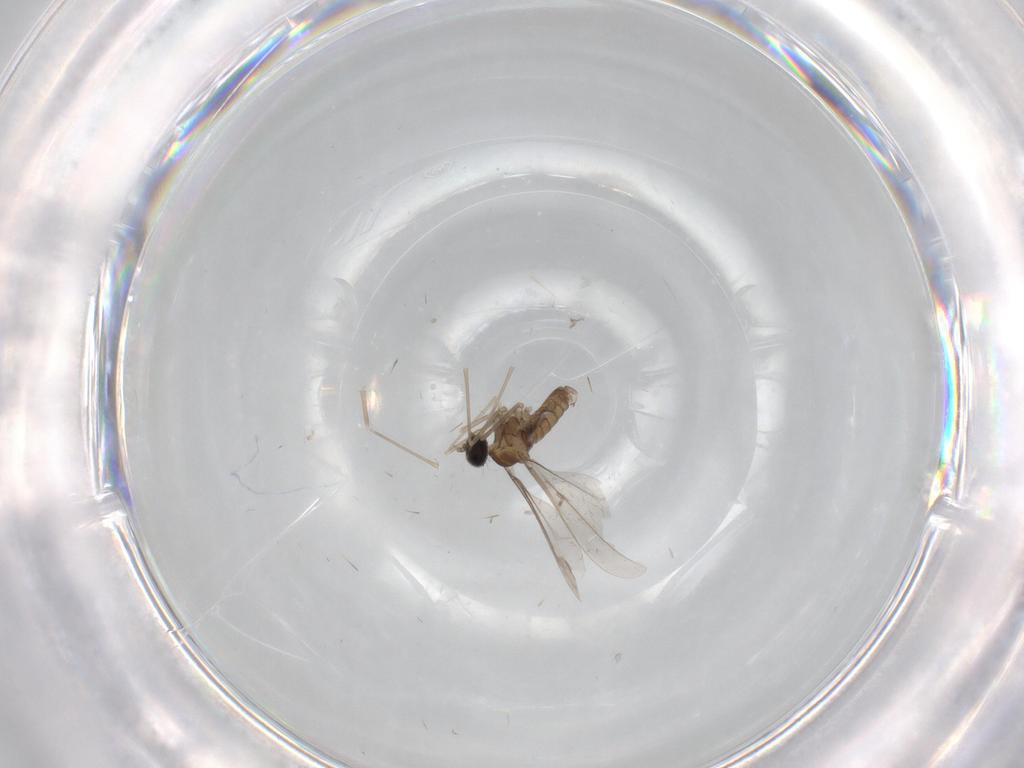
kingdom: Animalia
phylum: Arthropoda
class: Insecta
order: Diptera
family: Cecidomyiidae
